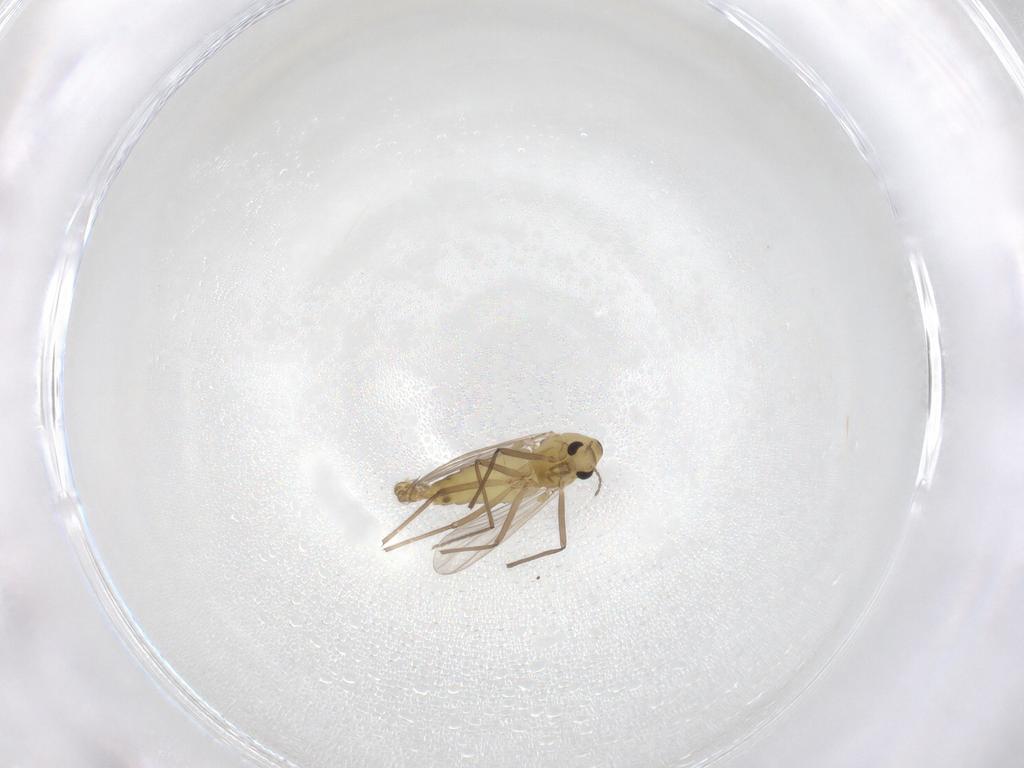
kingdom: Animalia
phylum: Arthropoda
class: Insecta
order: Diptera
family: Chironomidae
